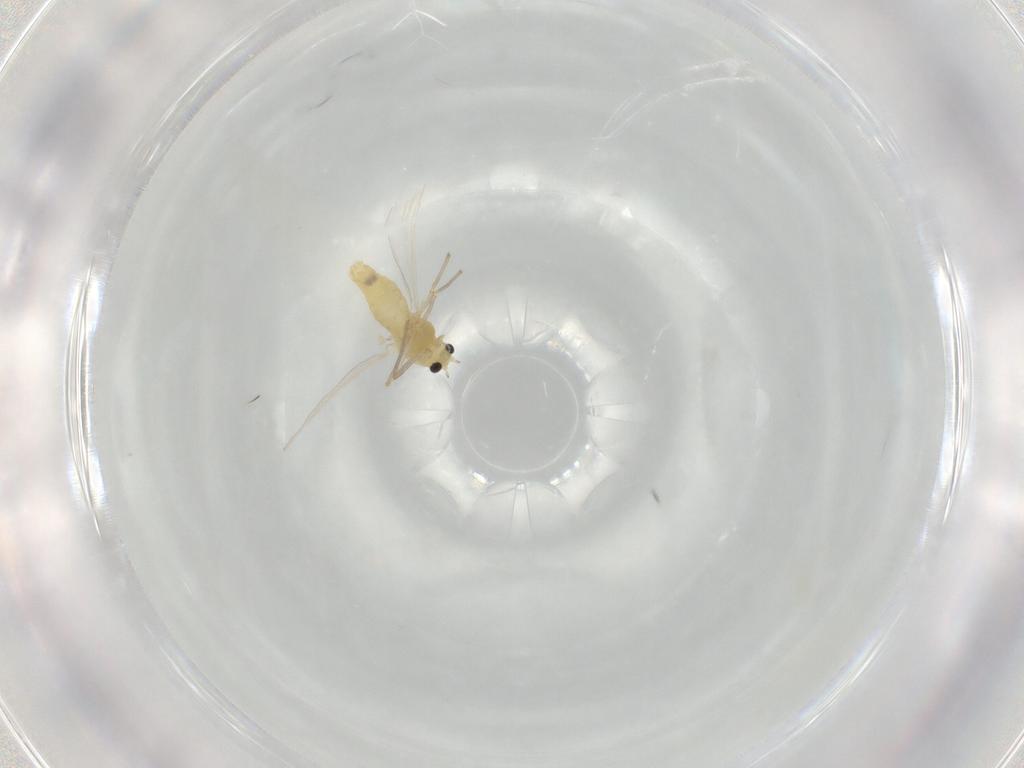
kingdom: Animalia
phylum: Arthropoda
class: Insecta
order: Diptera
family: Chironomidae
